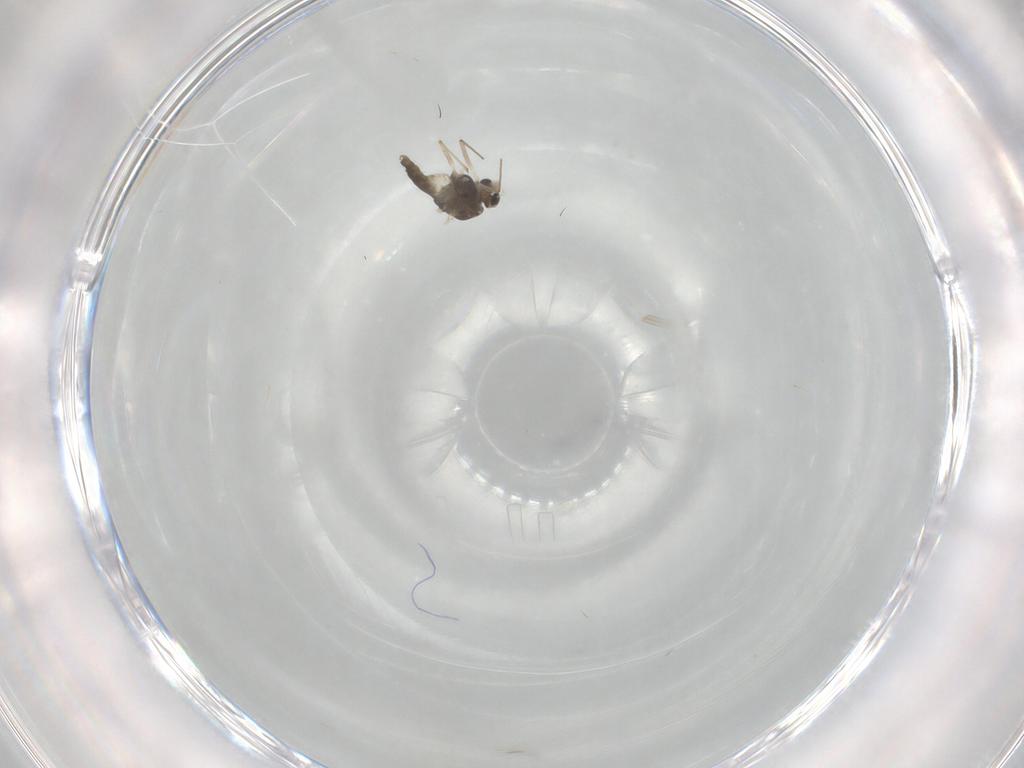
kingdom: Animalia
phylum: Arthropoda
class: Insecta
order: Diptera
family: Chironomidae
